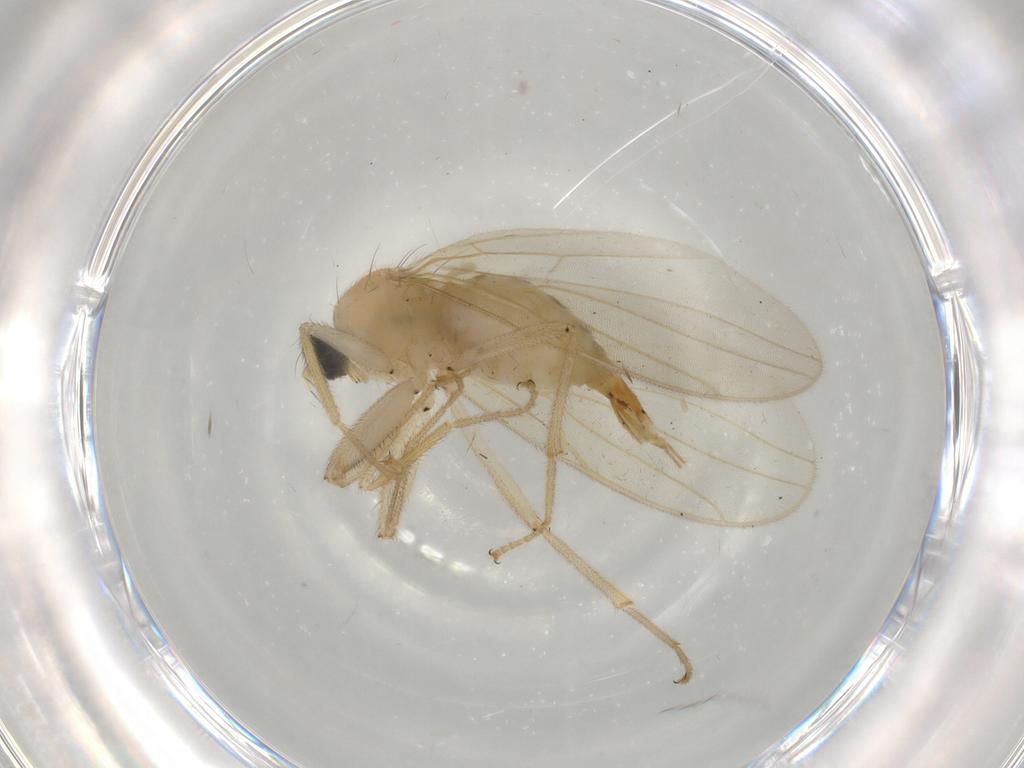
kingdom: Animalia
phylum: Arthropoda
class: Insecta
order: Diptera
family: Hybotidae
